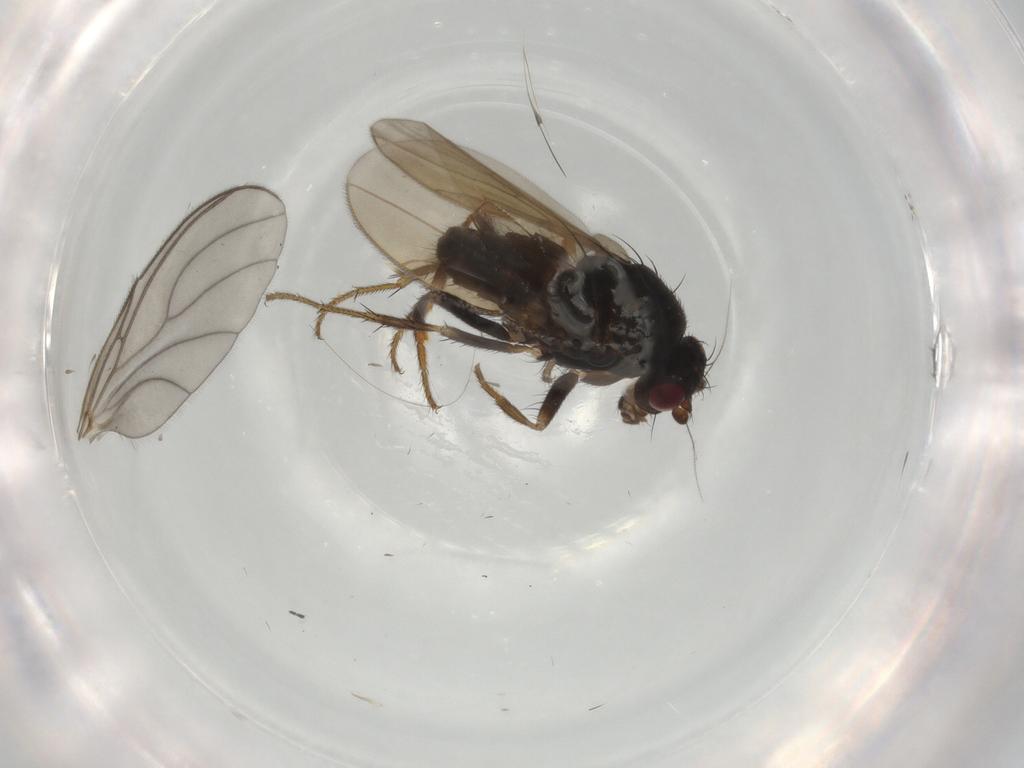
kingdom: Animalia
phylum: Arthropoda
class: Insecta
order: Diptera
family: Sphaeroceridae
